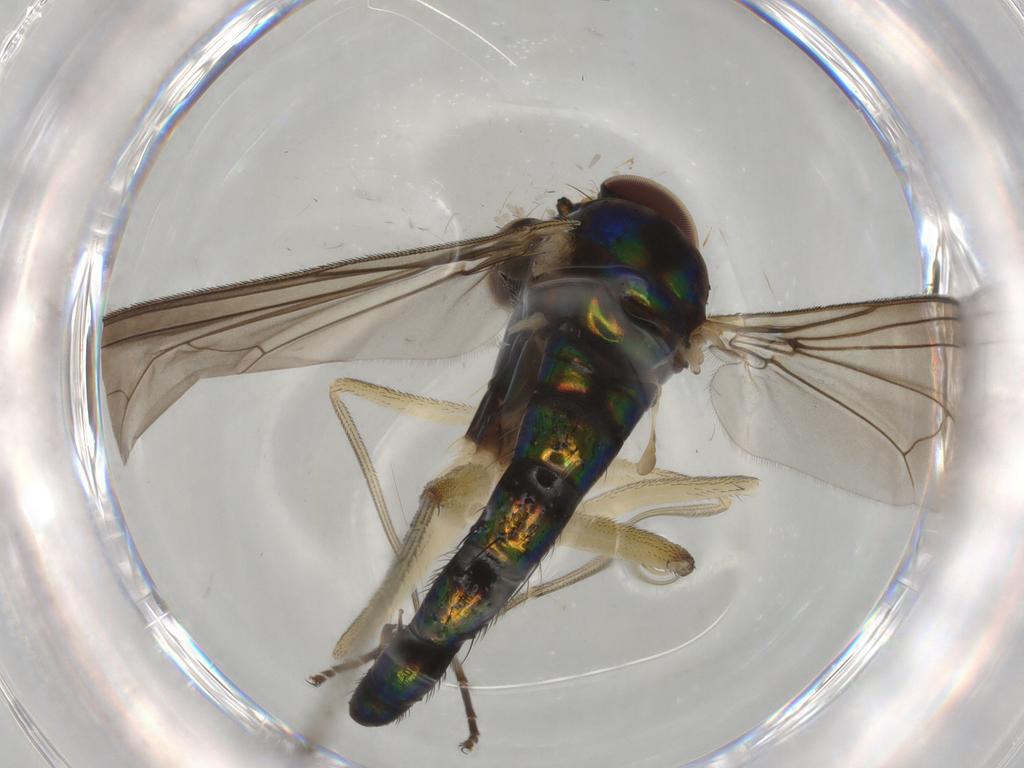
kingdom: Animalia
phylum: Arthropoda
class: Insecta
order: Diptera
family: Dolichopodidae
